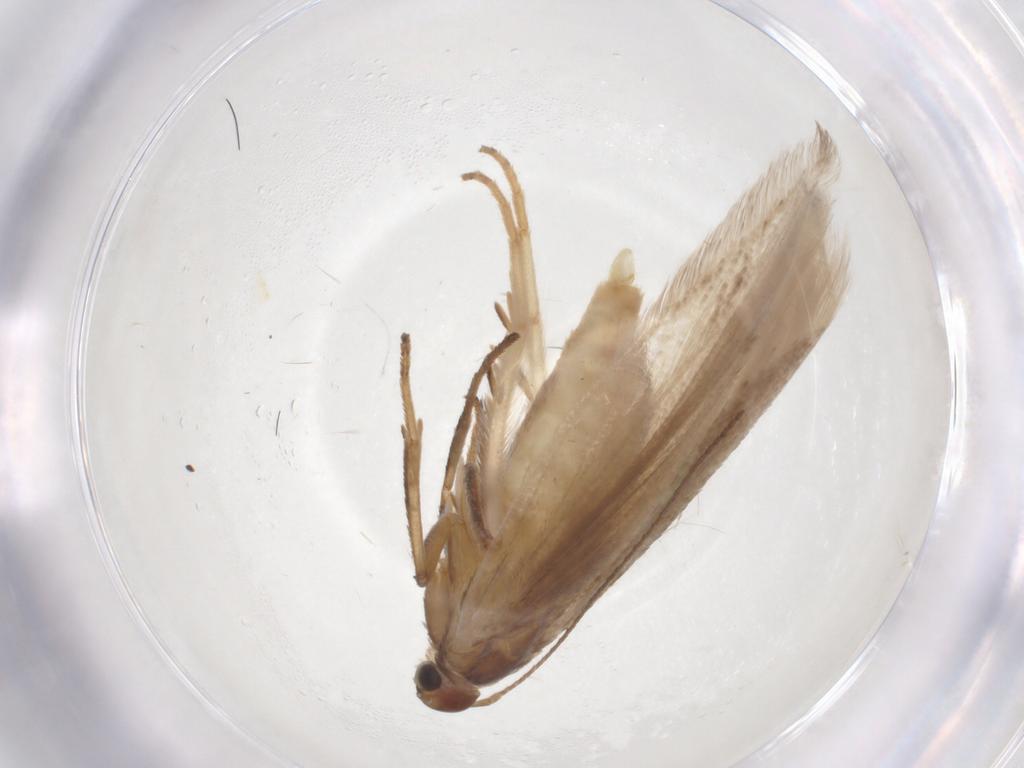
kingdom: Animalia
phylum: Arthropoda
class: Insecta
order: Lepidoptera
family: Gelechiidae
